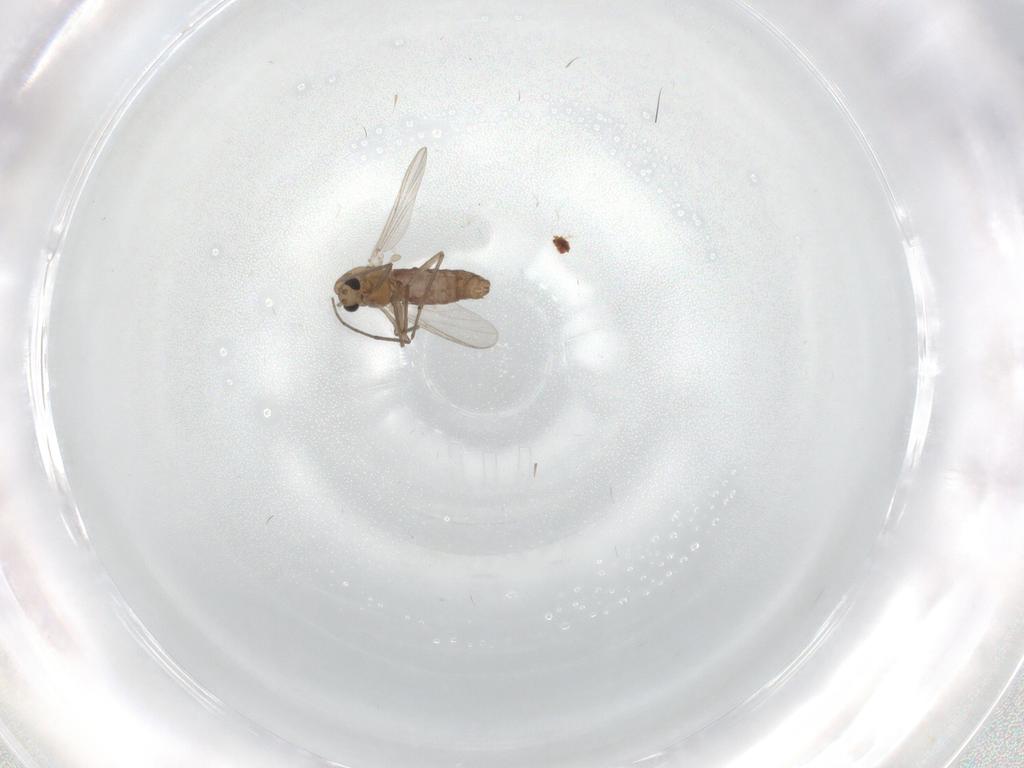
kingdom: Animalia
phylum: Arthropoda
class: Insecta
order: Diptera
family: Chironomidae
